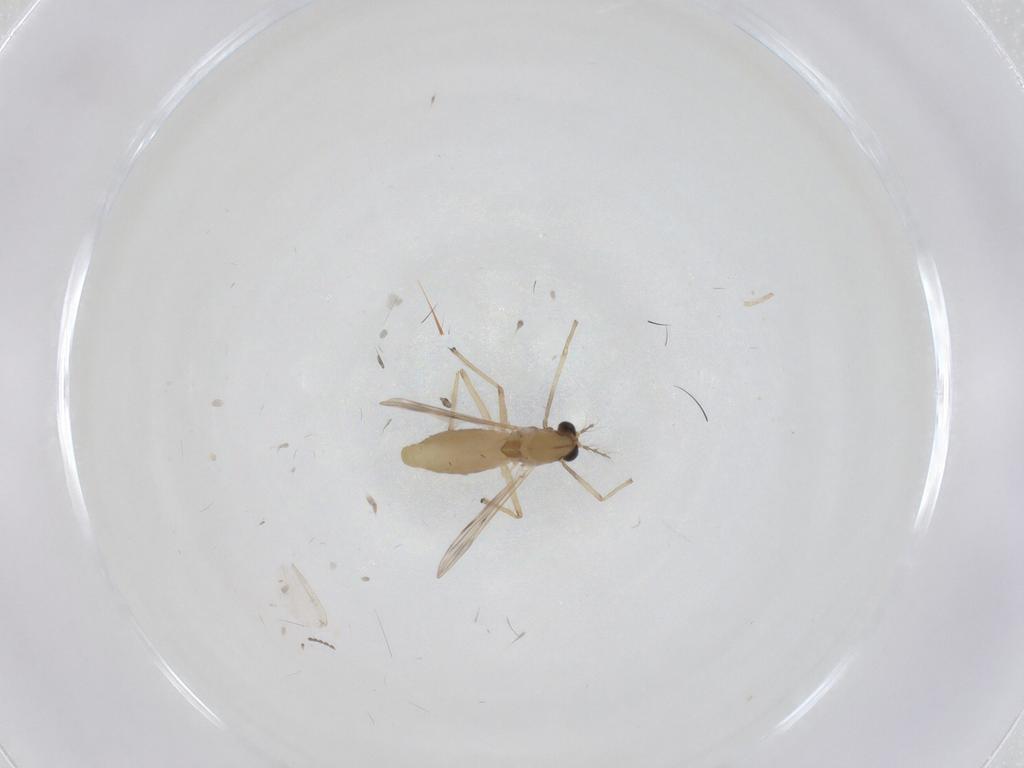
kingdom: Animalia
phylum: Arthropoda
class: Insecta
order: Diptera
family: Chironomidae
